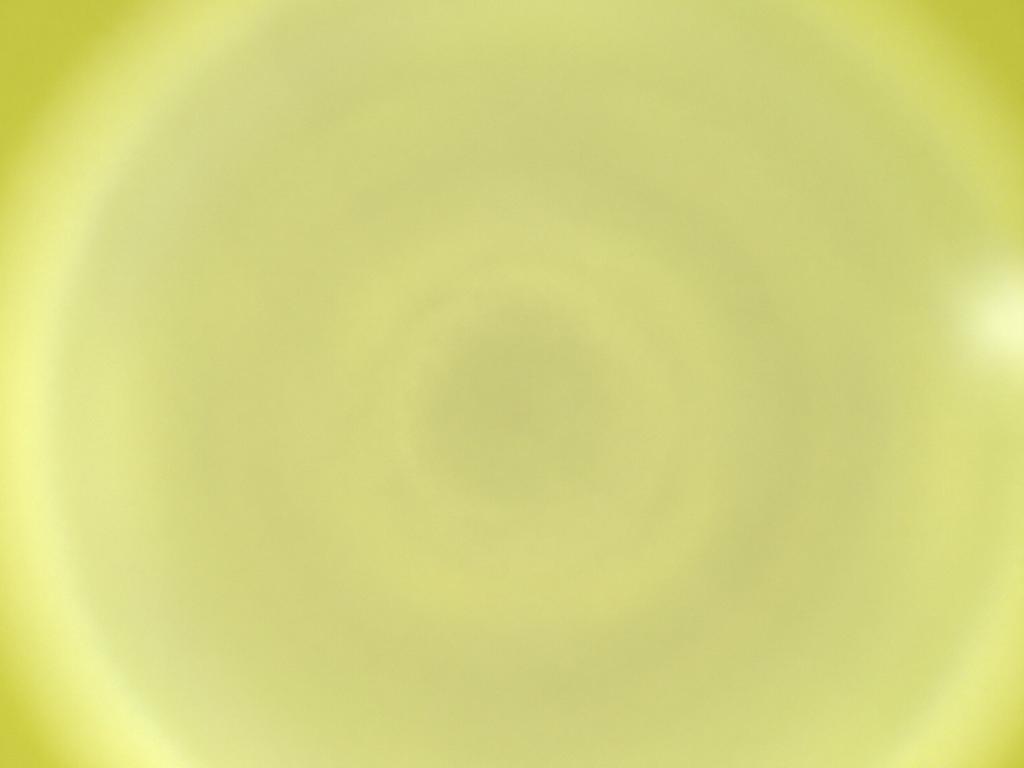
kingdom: Animalia
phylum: Arthropoda
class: Insecta
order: Diptera
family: Cecidomyiidae
